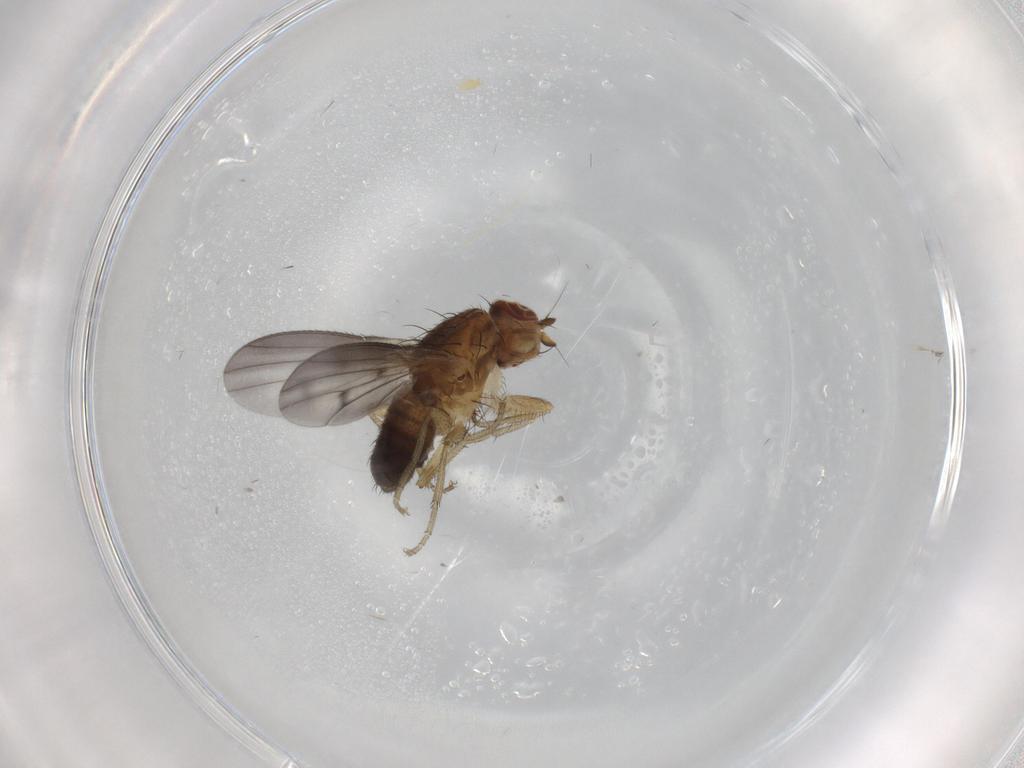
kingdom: Animalia
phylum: Arthropoda
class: Insecta
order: Diptera
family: Heleomyzidae
